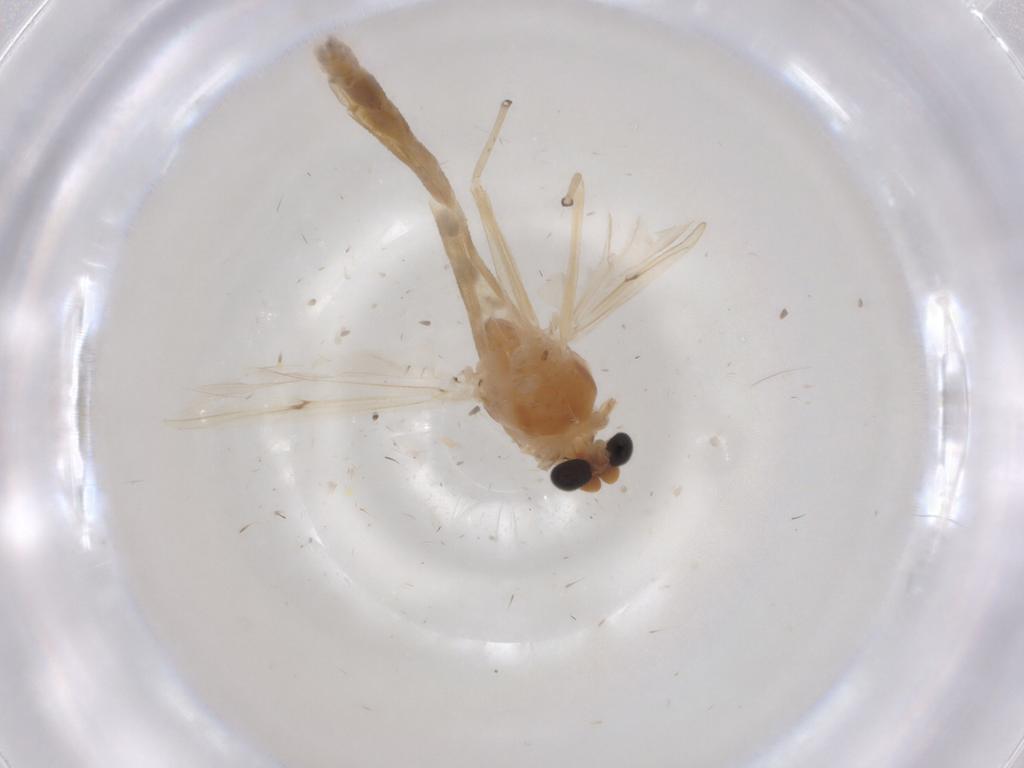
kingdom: Animalia
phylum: Arthropoda
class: Insecta
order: Diptera
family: Chironomidae
